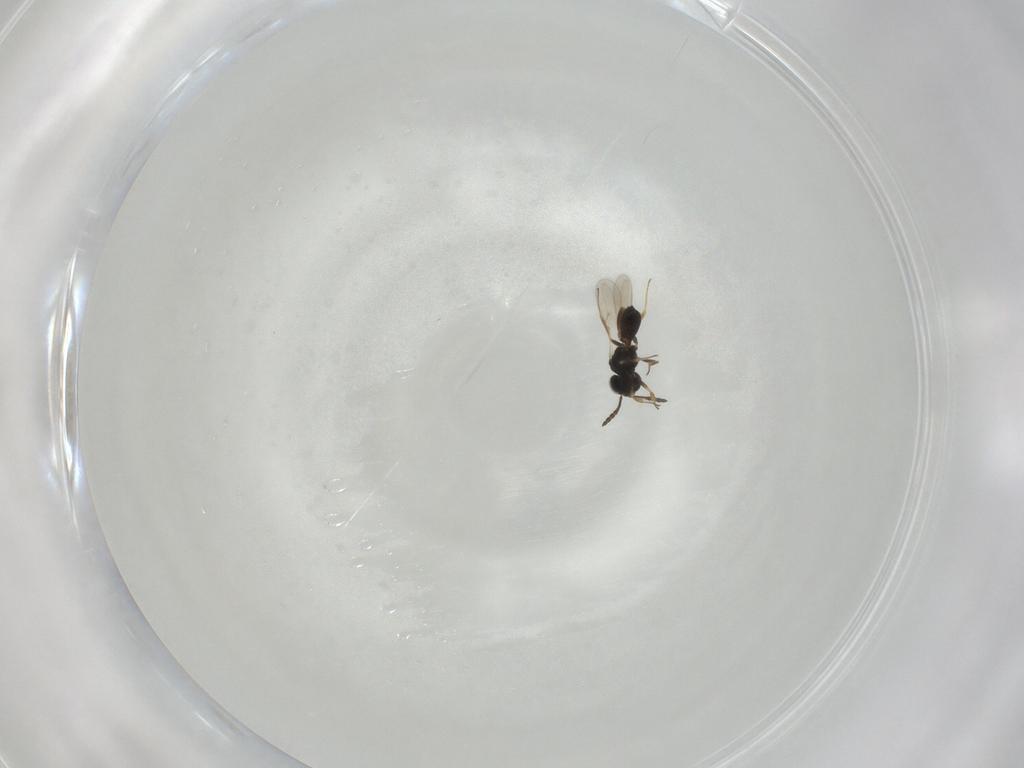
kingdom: Animalia
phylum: Arthropoda
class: Insecta
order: Hymenoptera
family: Scelionidae
